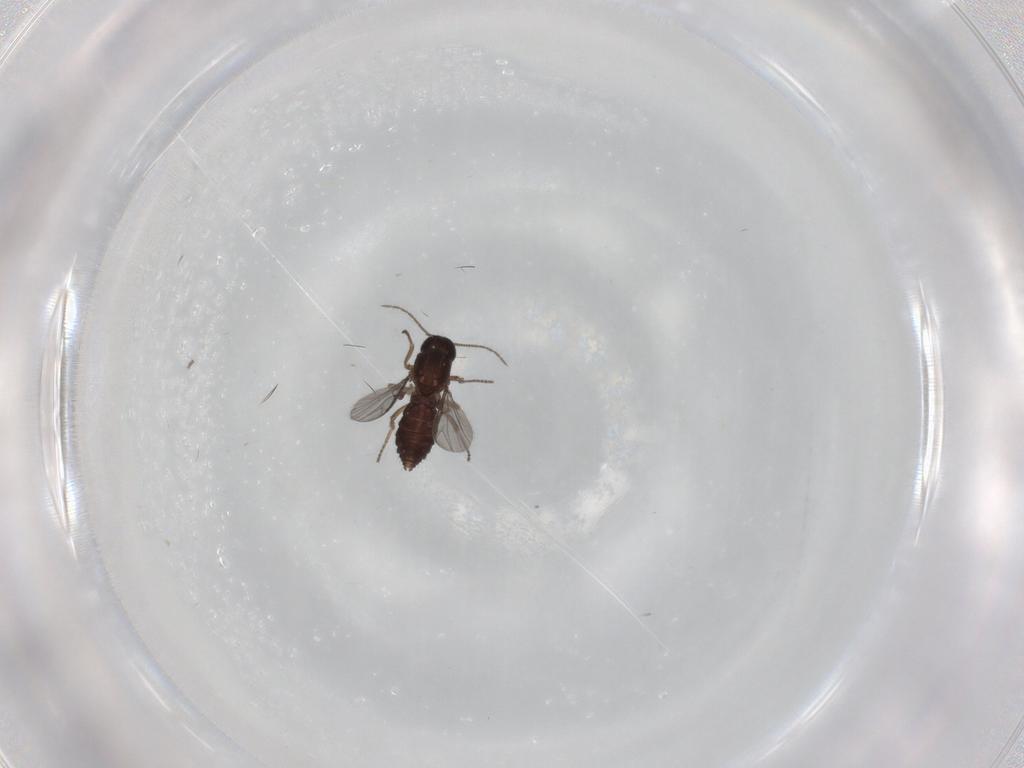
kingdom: Animalia
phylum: Arthropoda
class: Insecta
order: Diptera
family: Ceratopogonidae
